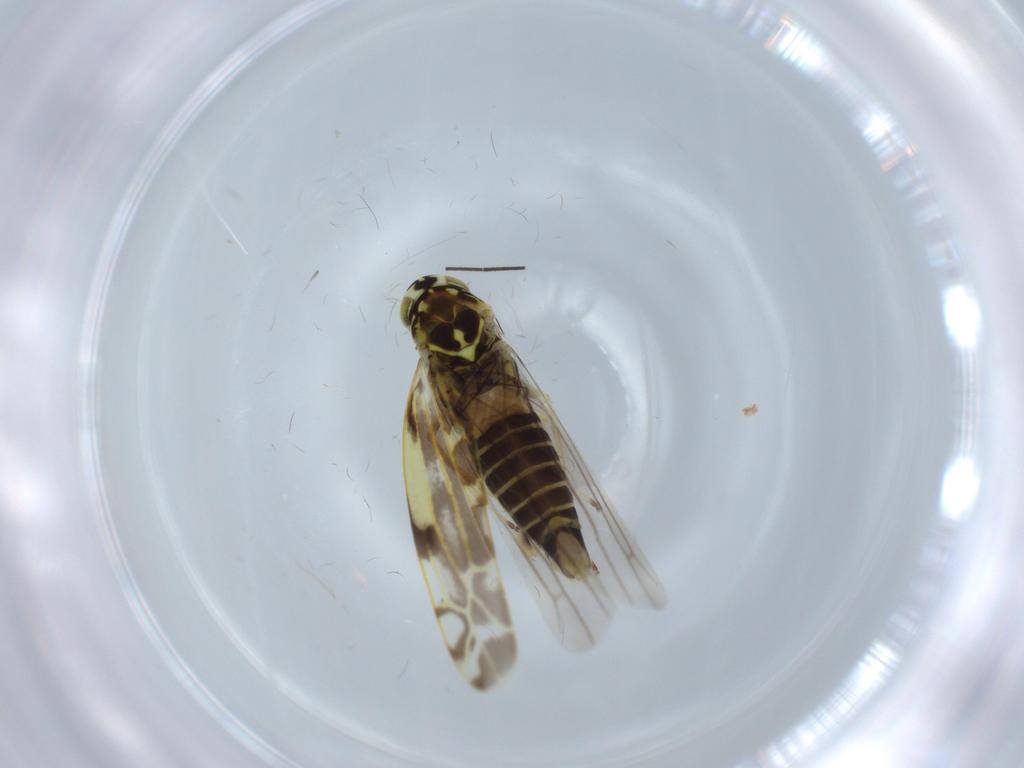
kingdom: Animalia
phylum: Arthropoda
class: Insecta
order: Hemiptera
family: Cicadellidae
